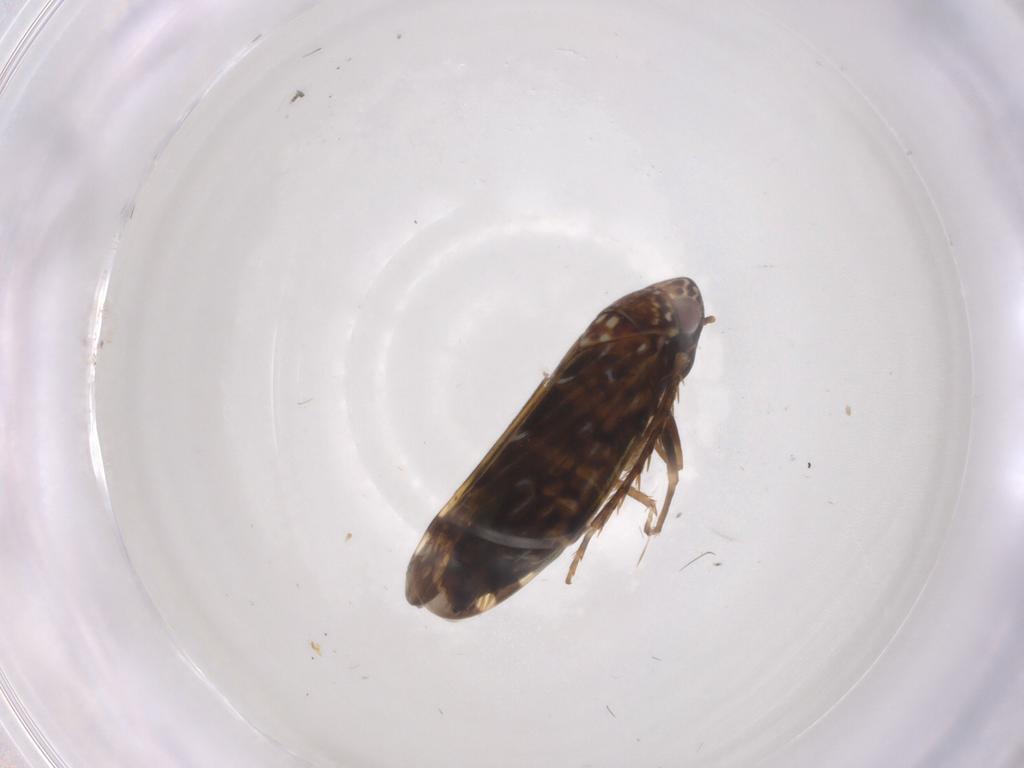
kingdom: Animalia
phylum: Arthropoda
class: Insecta
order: Hemiptera
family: Cicadellidae
